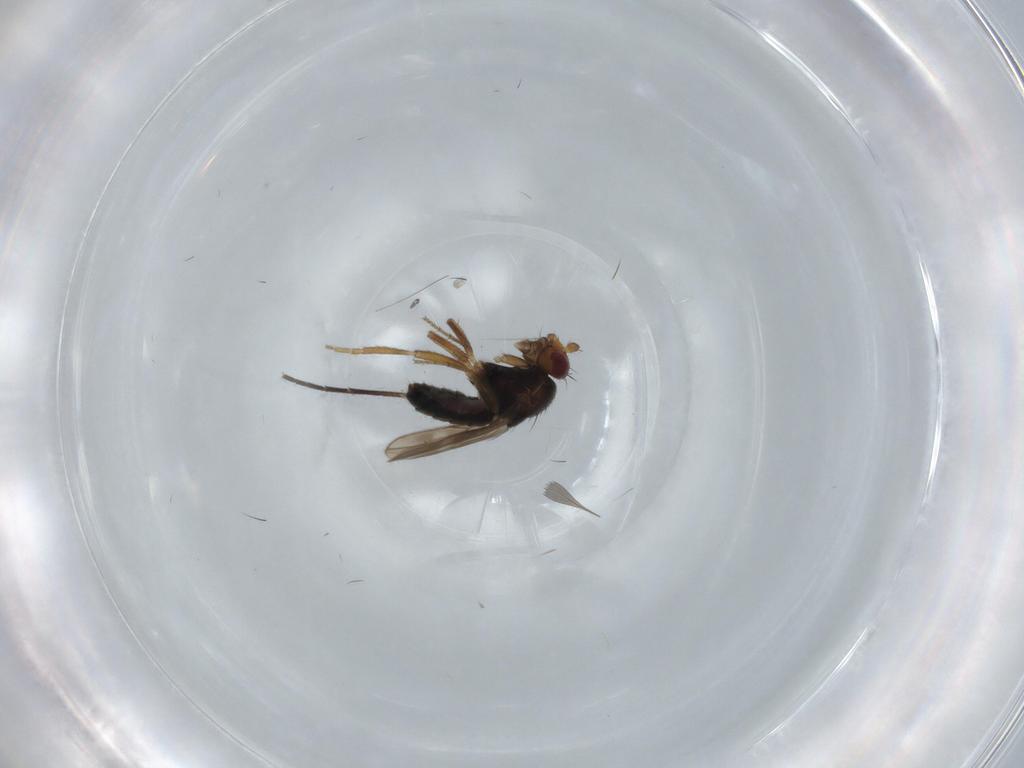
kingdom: Animalia
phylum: Arthropoda
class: Insecta
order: Diptera
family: Sphaeroceridae
